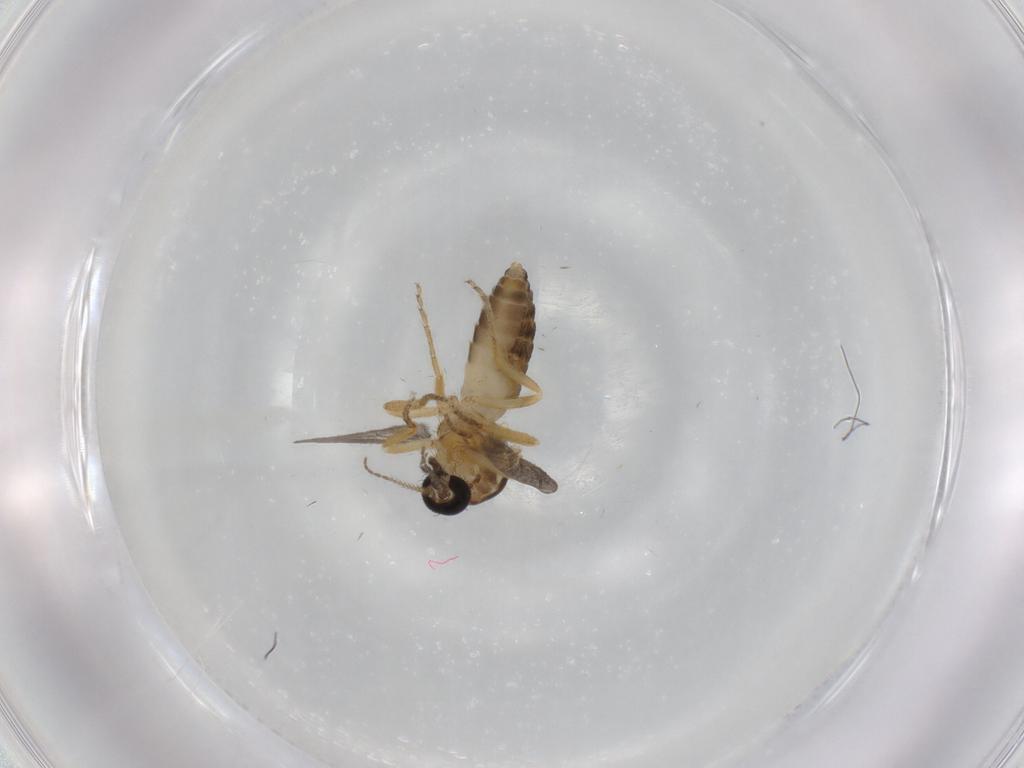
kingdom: Animalia
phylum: Arthropoda
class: Insecta
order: Diptera
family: Ceratopogonidae
